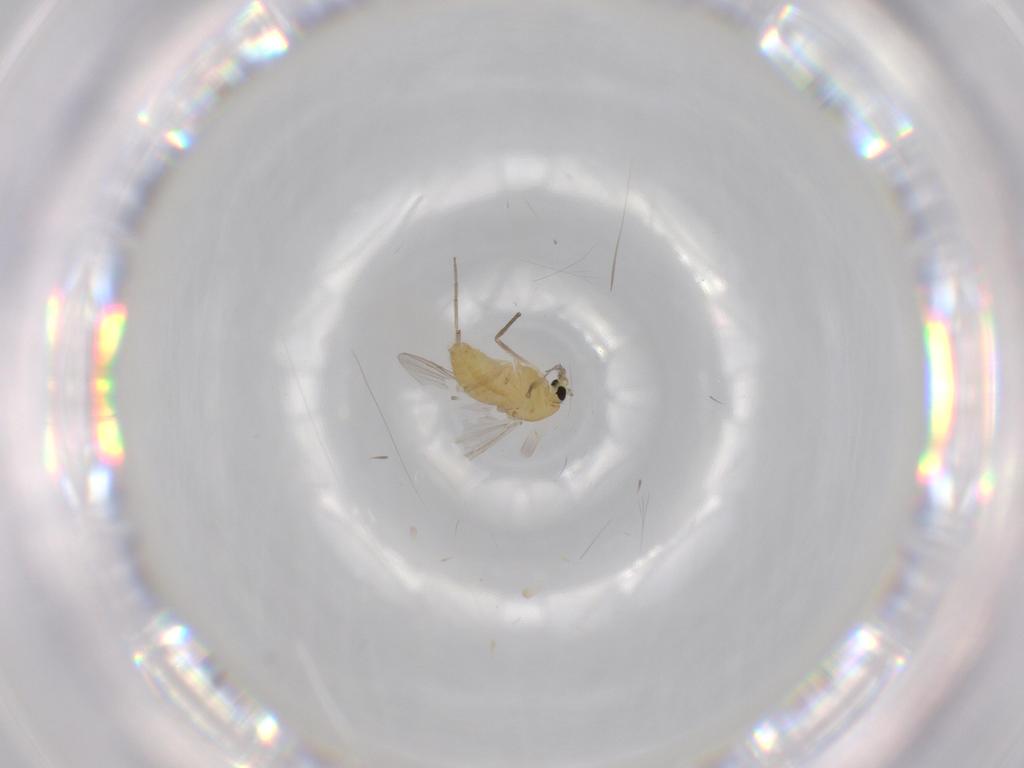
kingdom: Animalia
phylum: Arthropoda
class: Insecta
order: Diptera
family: Chironomidae
